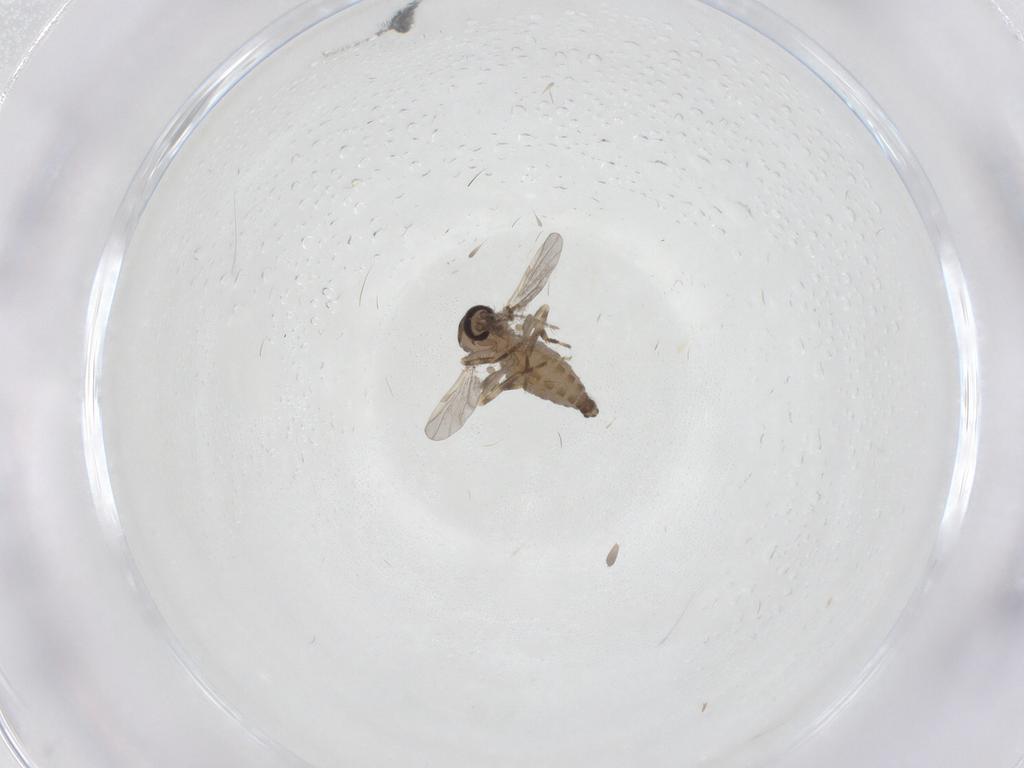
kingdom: Animalia
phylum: Arthropoda
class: Insecta
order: Diptera
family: Ceratopogonidae
